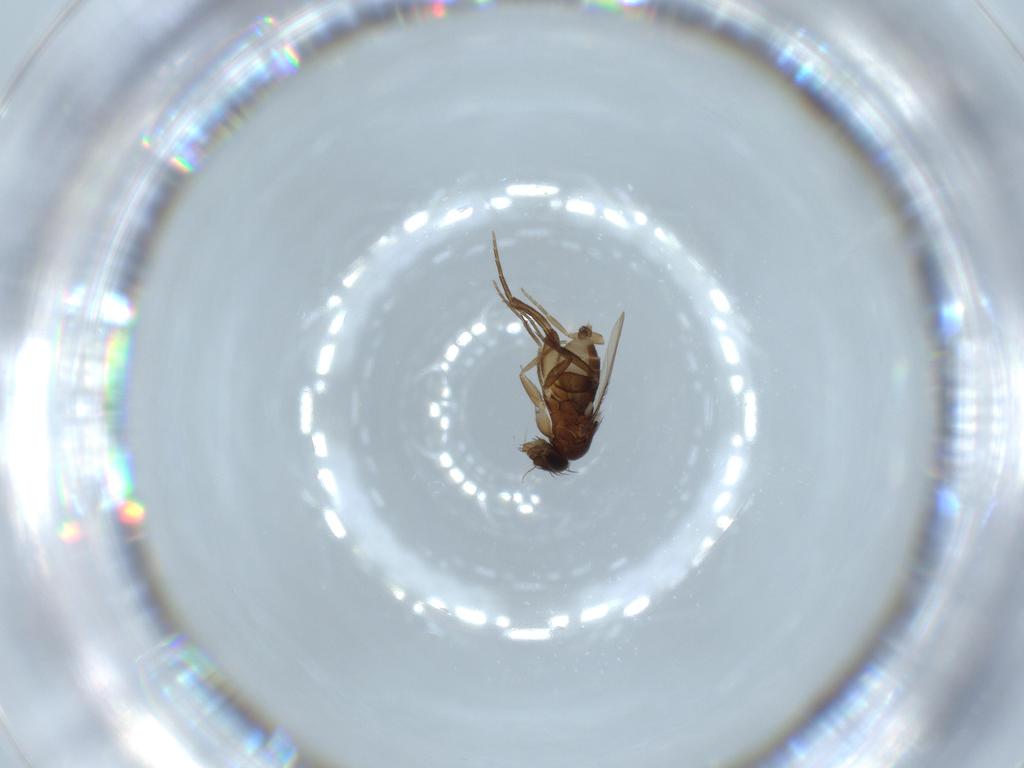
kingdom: Animalia
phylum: Arthropoda
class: Insecta
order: Diptera
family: Phoridae
